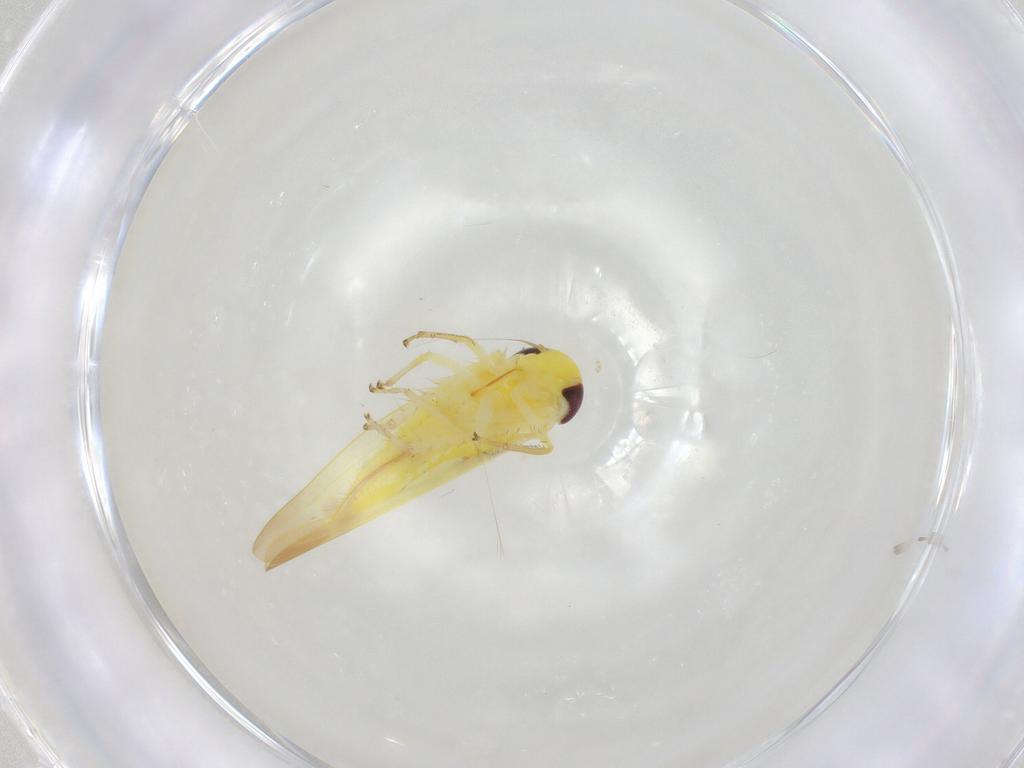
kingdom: Animalia
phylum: Arthropoda
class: Insecta
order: Hemiptera
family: Cicadellidae
